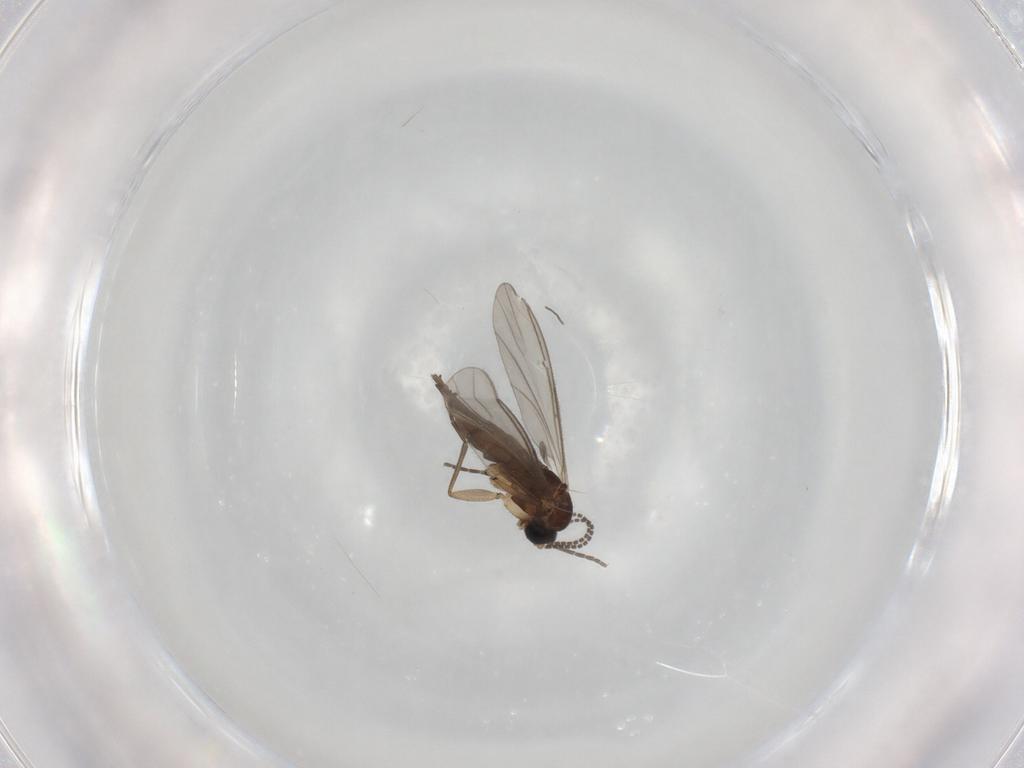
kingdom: Animalia
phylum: Arthropoda
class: Insecta
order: Diptera
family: Sciaridae
